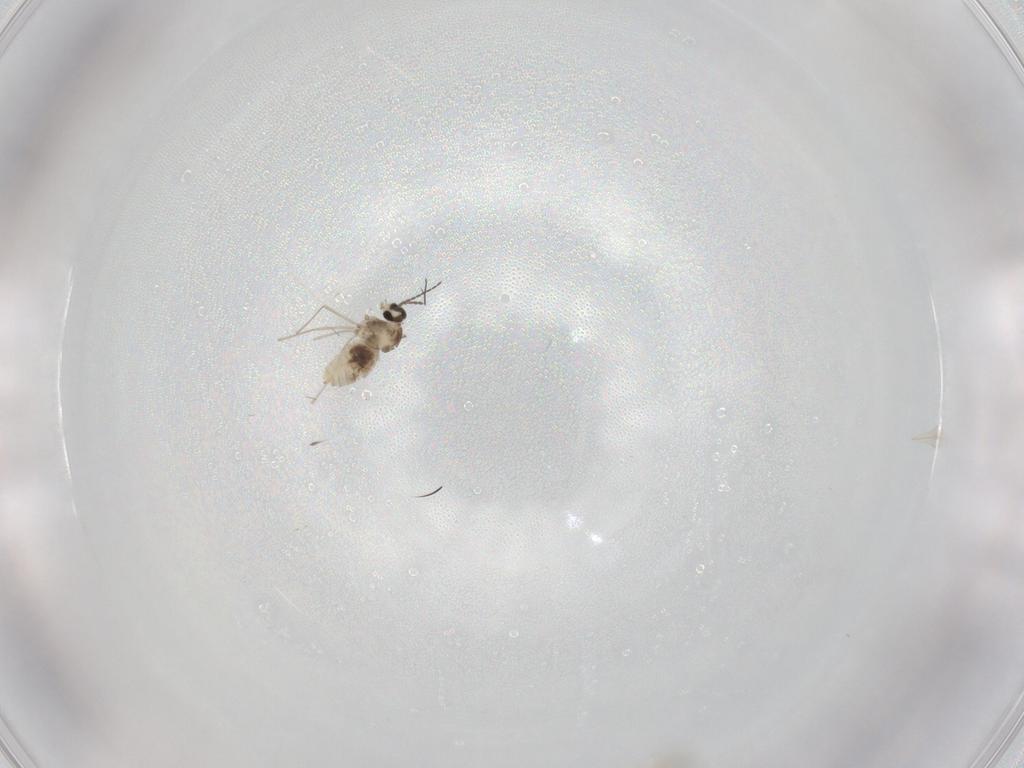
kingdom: Animalia
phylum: Arthropoda
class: Insecta
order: Diptera
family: Chironomidae
